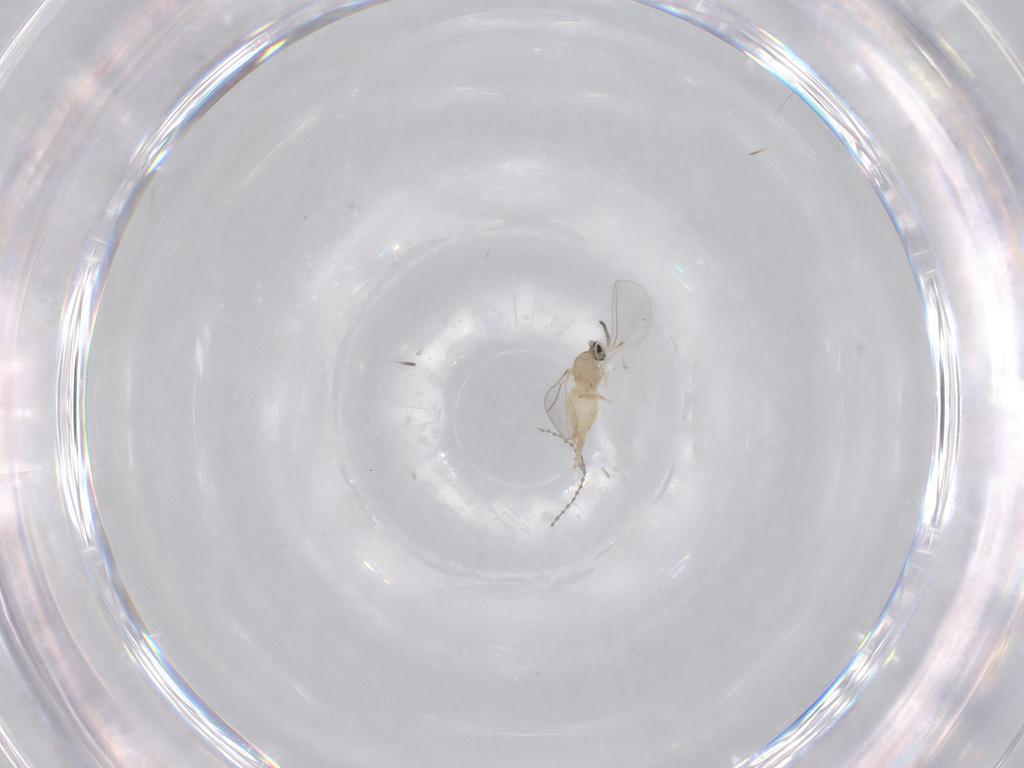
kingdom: Animalia
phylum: Arthropoda
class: Insecta
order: Diptera
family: Cecidomyiidae
